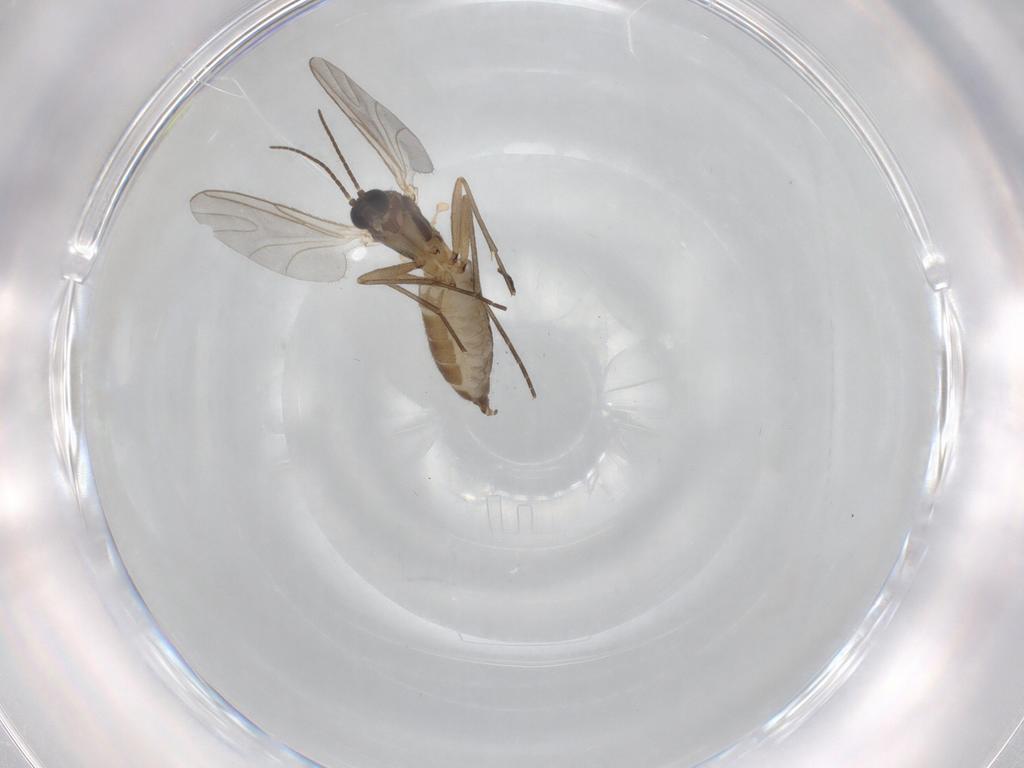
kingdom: Animalia
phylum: Arthropoda
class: Insecta
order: Diptera
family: Sciaridae
